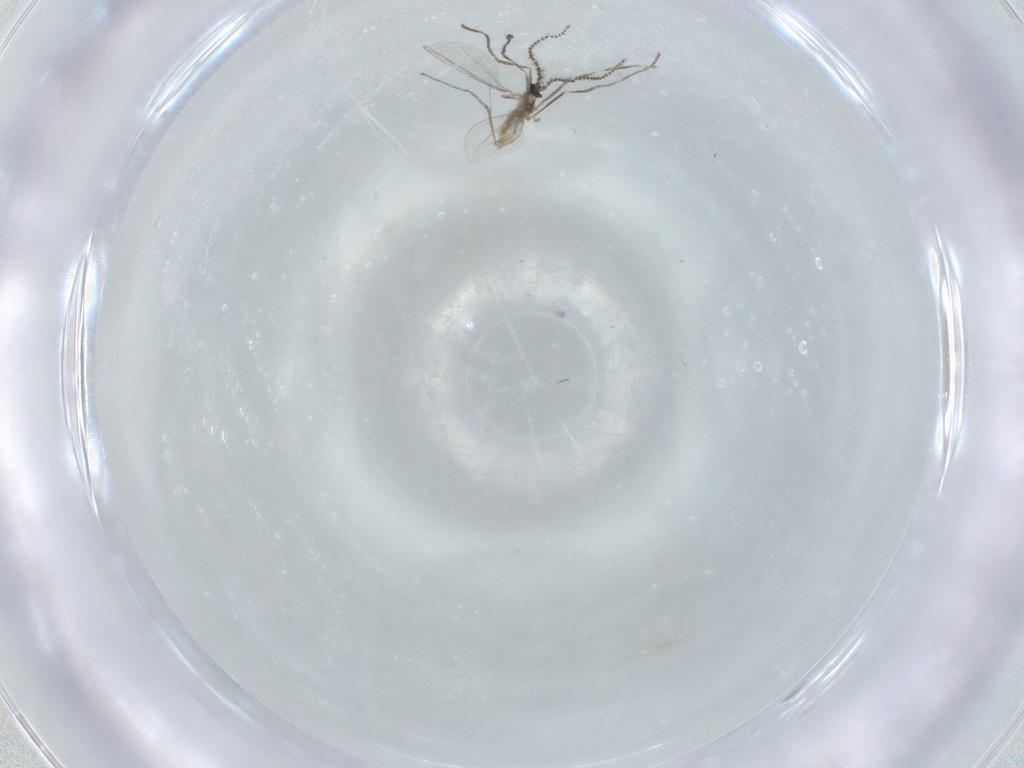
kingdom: Animalia
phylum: Arthropoda
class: Insecta
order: Diptera
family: Cecidomyiidae
